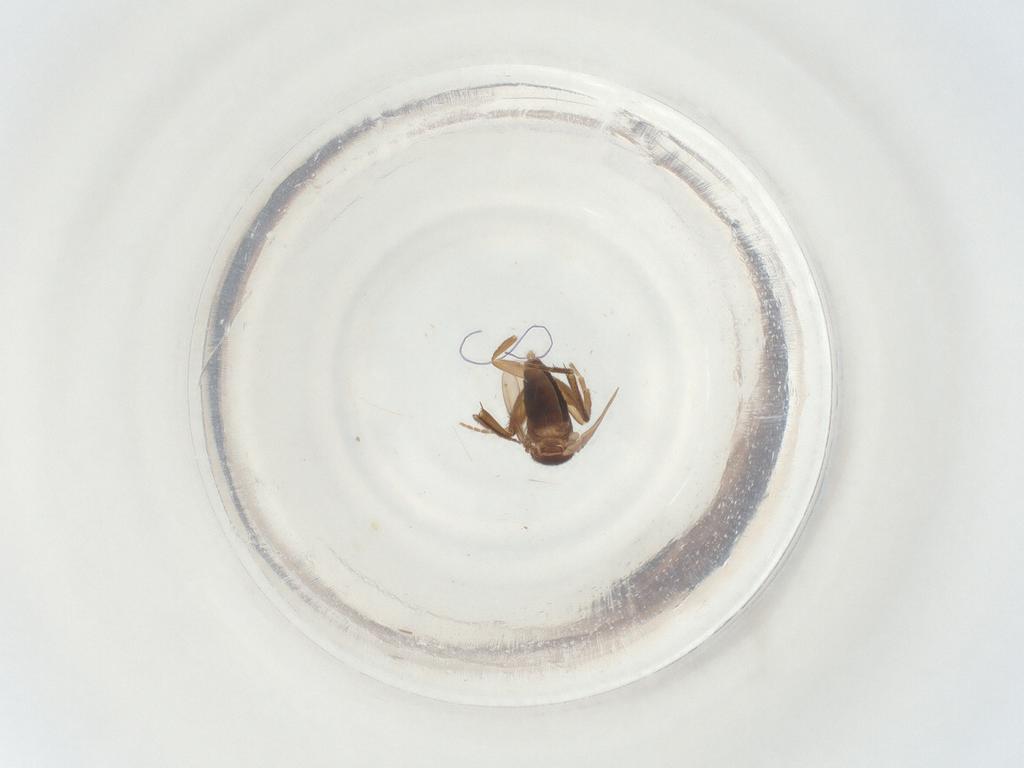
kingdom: Animalia
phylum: Arthropoda
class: Insecta
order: Diptera
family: Phoridae
